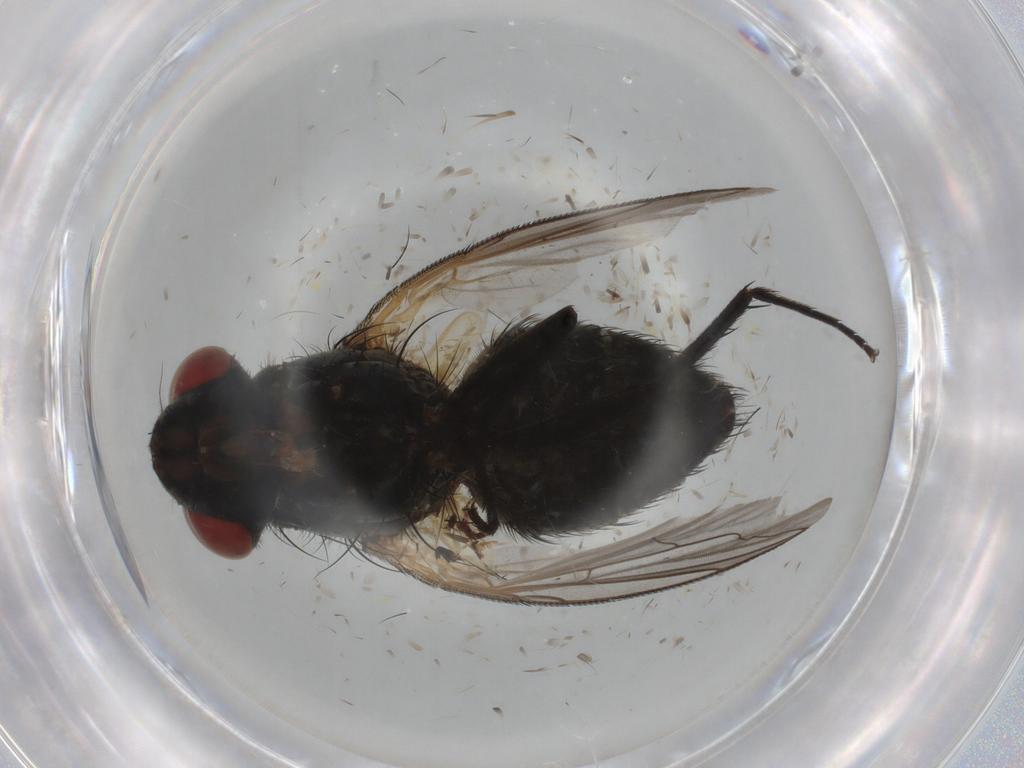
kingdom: Animalia
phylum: Arthropoda
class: Insecta
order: Diptera
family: Sarcophagidae
